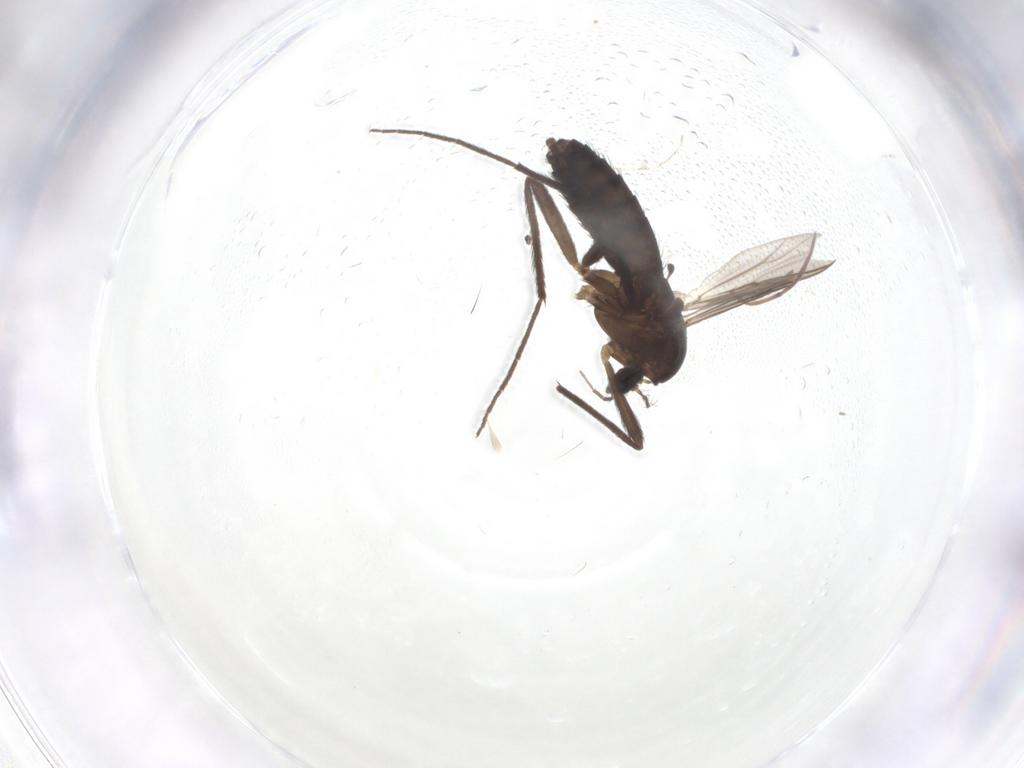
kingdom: Animalia
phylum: Arthropoda
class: Insecta
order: Diptera
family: Chironomidae
